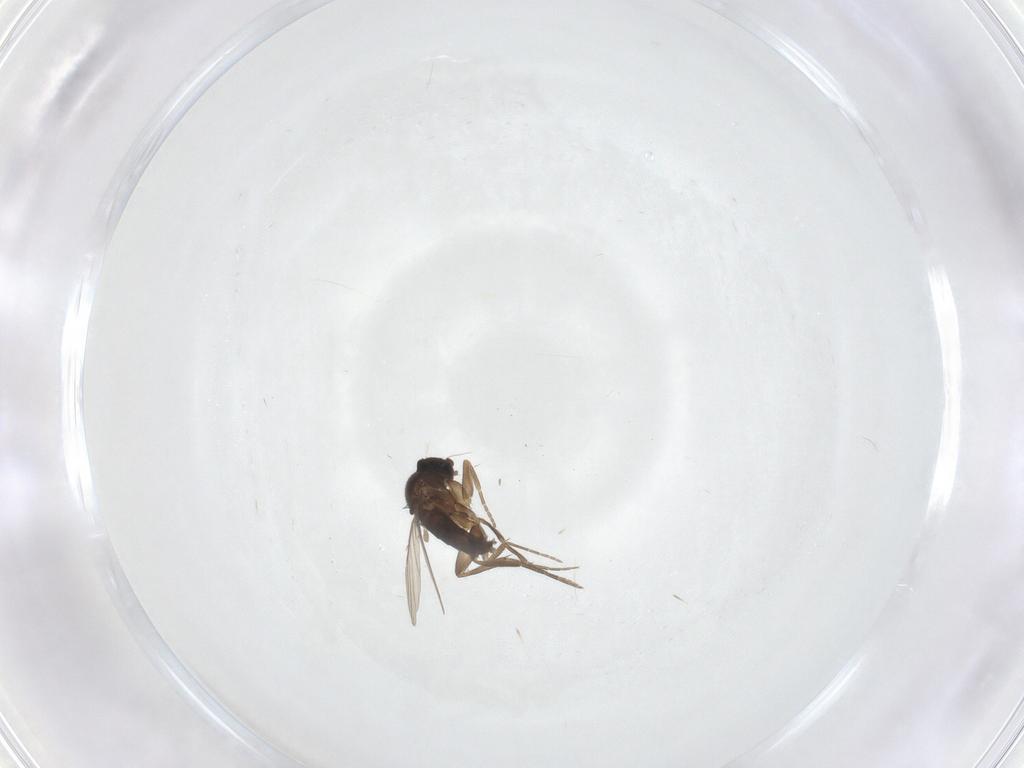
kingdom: Animalia
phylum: Arthropoda
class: Insecta
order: Diptera
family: Phoridae
